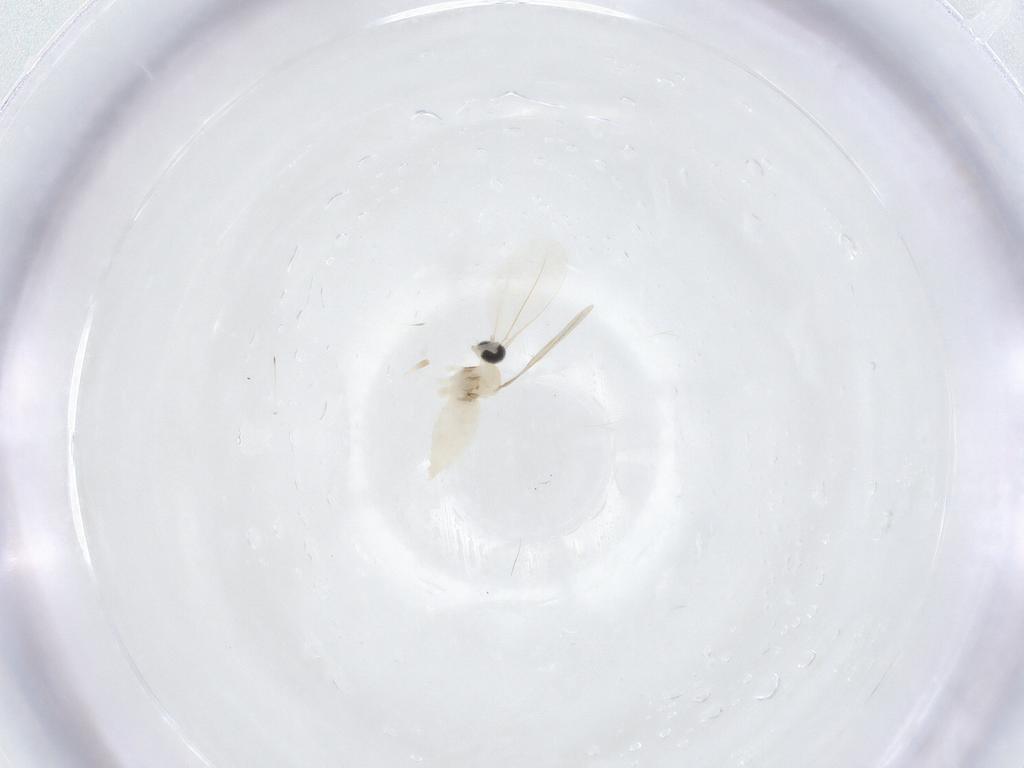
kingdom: Animalia
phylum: Arthropoda
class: Insecta
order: Diptera
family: Cecidomyiidae
